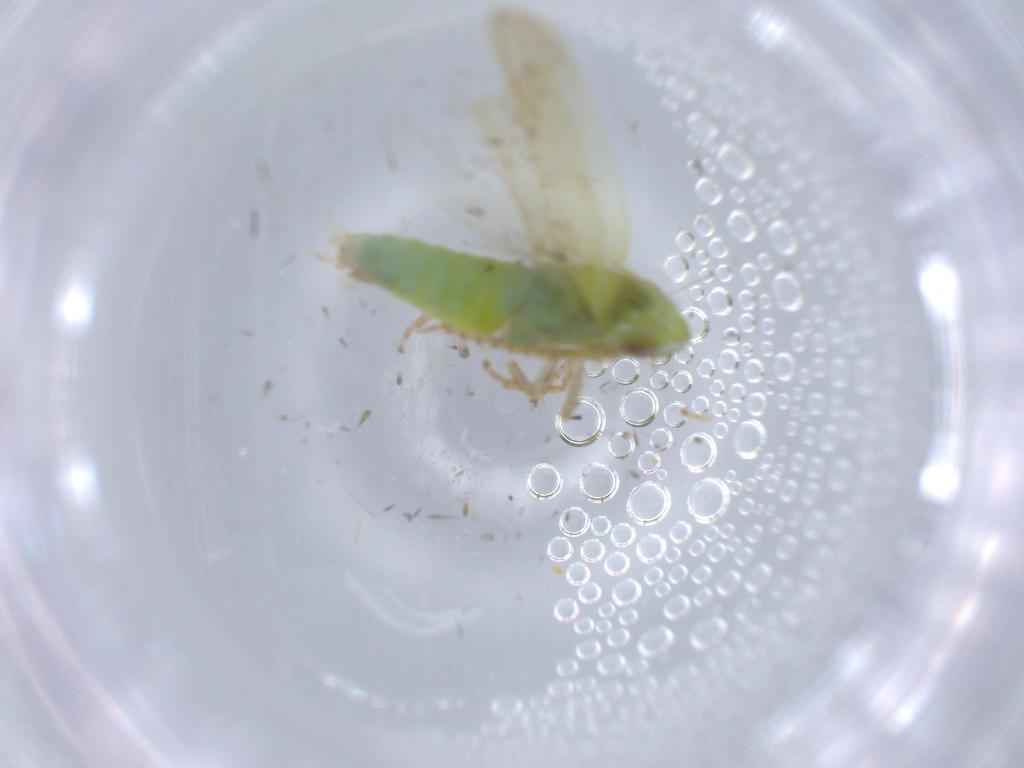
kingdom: Animalia
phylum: Arthropoda
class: Insecta
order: Hemiptera
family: Cicadellidae
